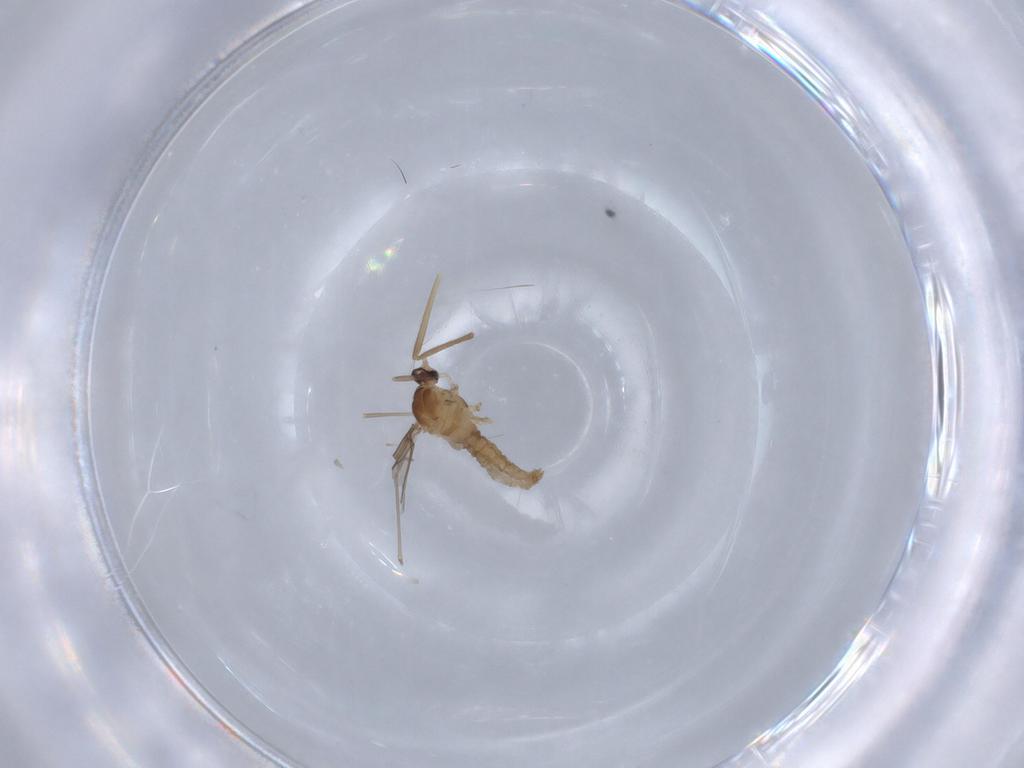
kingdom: Animalia
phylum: Arthropoda
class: Insecta
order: Diptera
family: Cecidomyiidae
